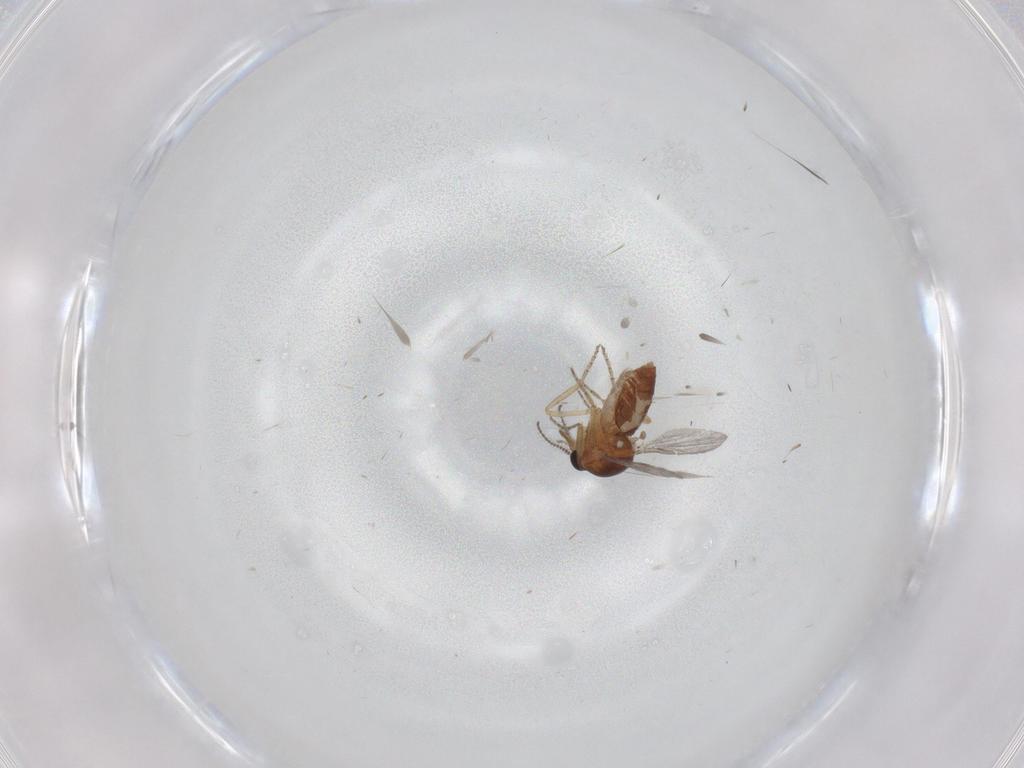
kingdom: Animalia
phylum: Arthropoda
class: Insecta
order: Diptera
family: Ceratopogonidae
